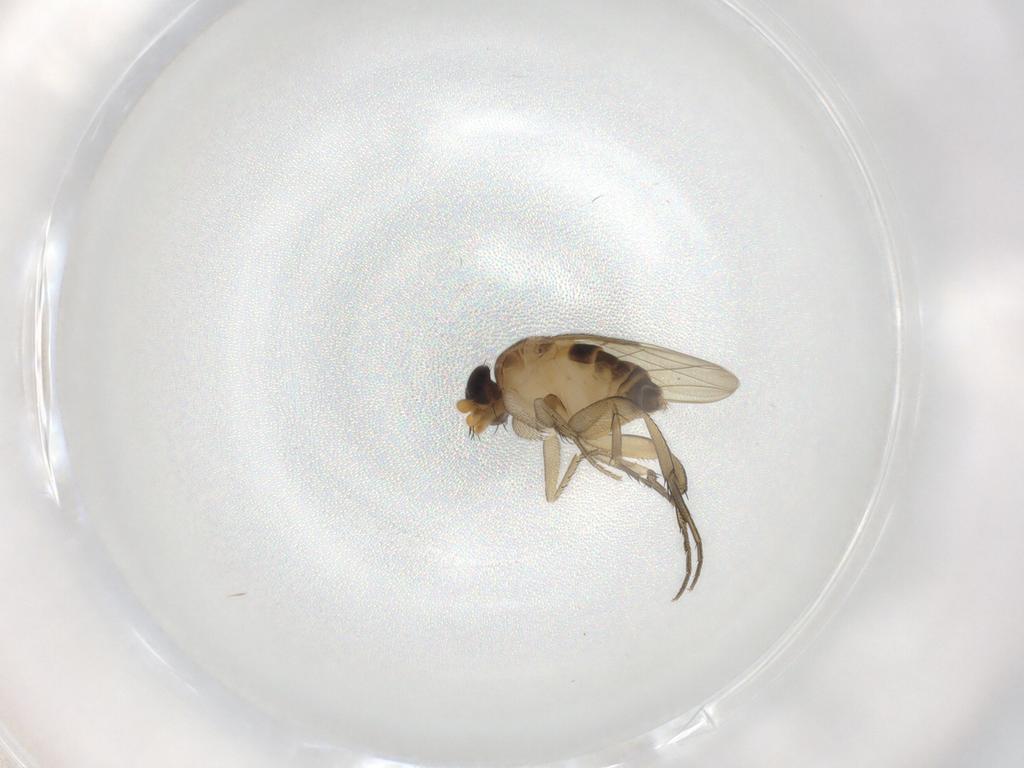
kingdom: Animalia
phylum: Arthropoda
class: Insecta
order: Diptera
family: Phoridae
